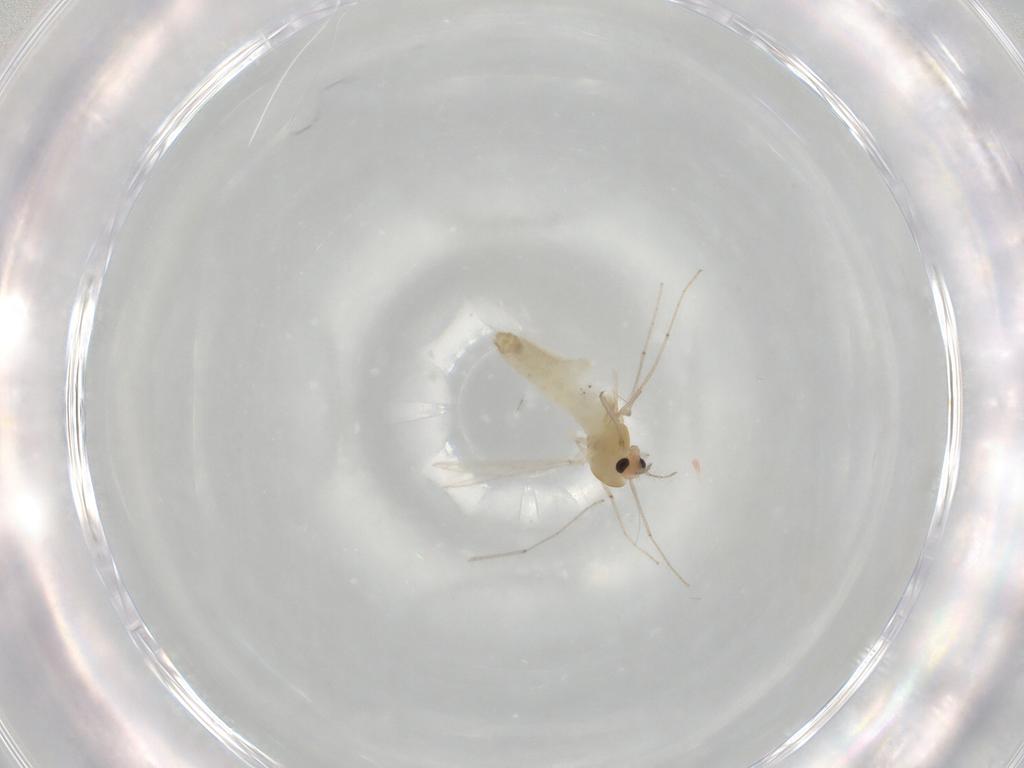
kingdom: Animalia
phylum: Arthropoda
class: Insecta
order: Diptera
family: Chironomidae
